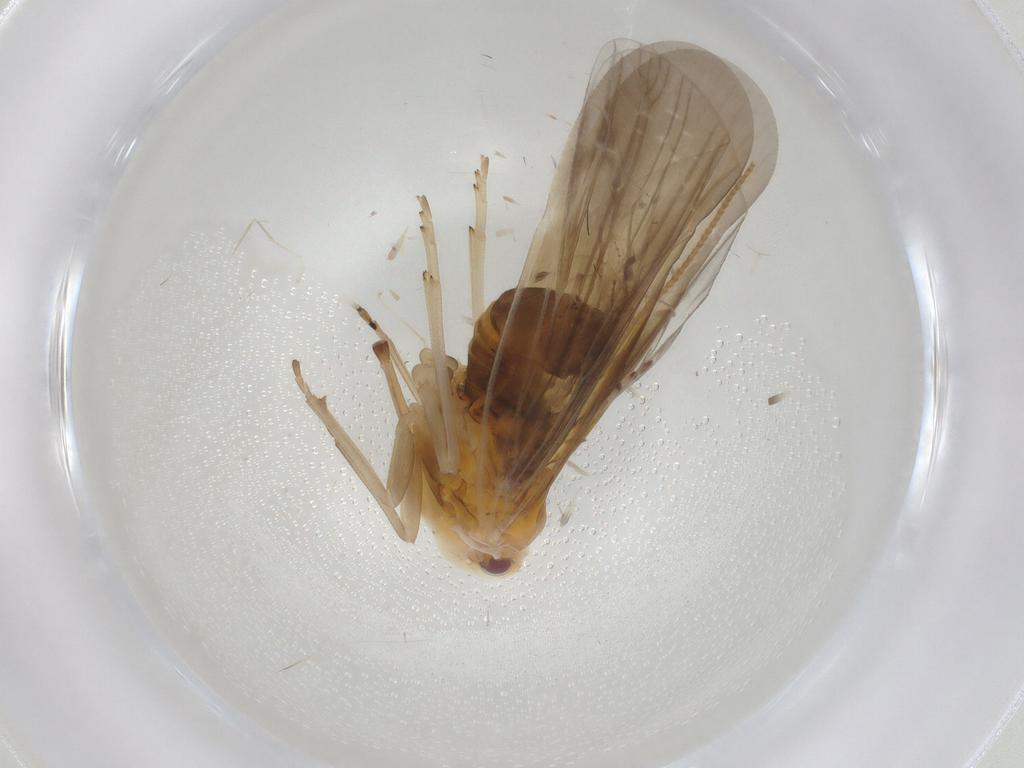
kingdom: Animalia
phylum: Arthropoda
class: Insecta
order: Hemiptera
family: Derbidae
